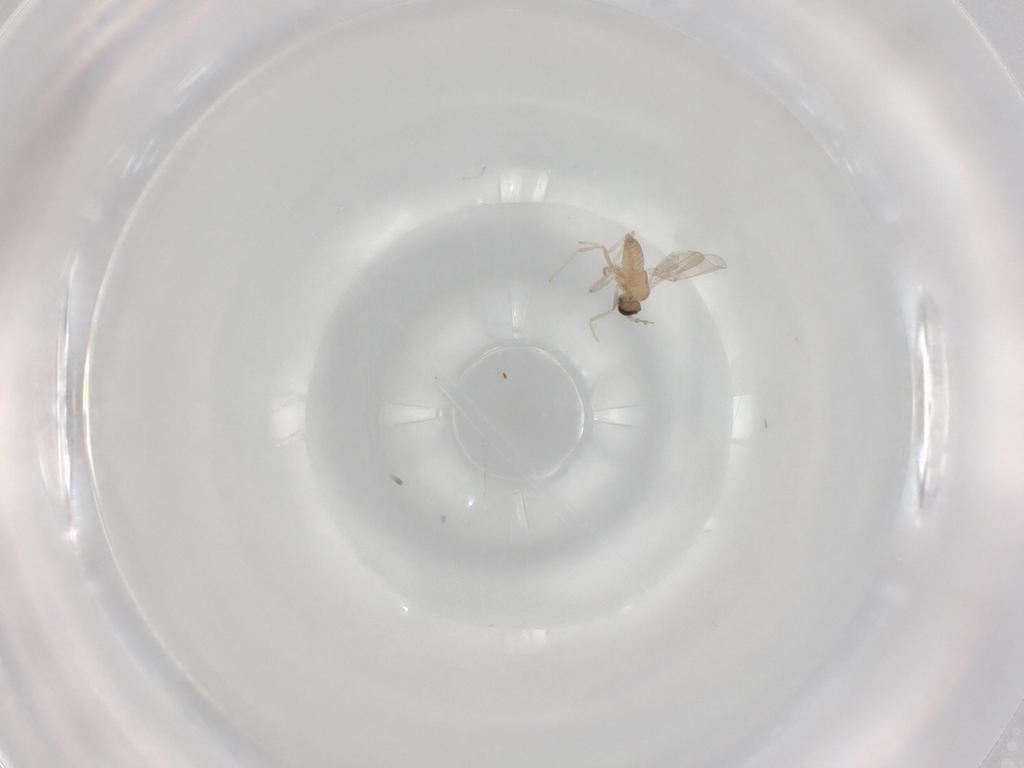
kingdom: Animalia
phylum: Arthropoda
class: Insecta
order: Diptera
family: Cecidomyiidae
